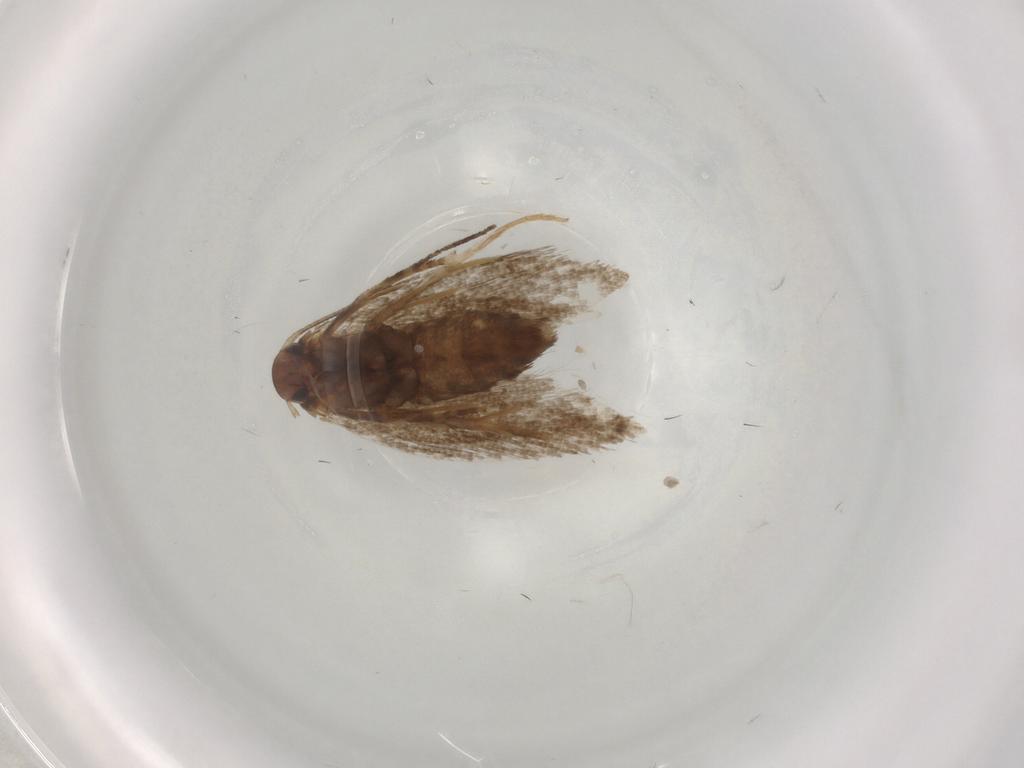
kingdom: Animalia
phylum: Arthropoda
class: Insecta
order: Lepidoptera
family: Elachistidae
